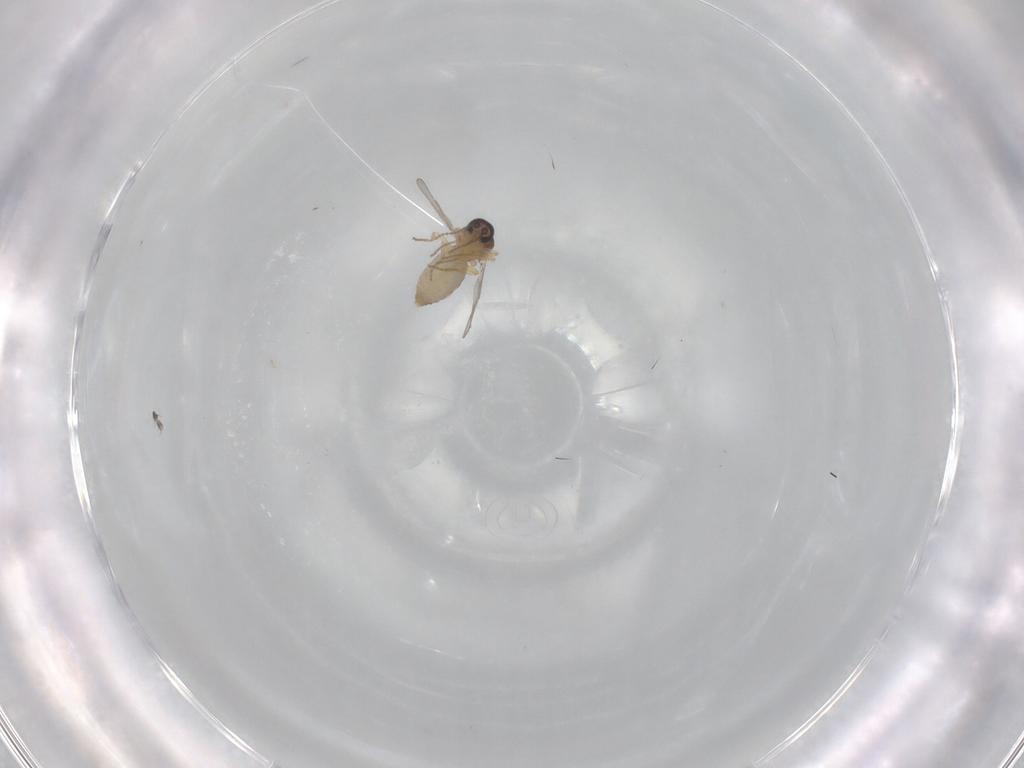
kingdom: Animalia
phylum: Arthropoda
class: Insecta
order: Diptera
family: Ceratopogonidae
